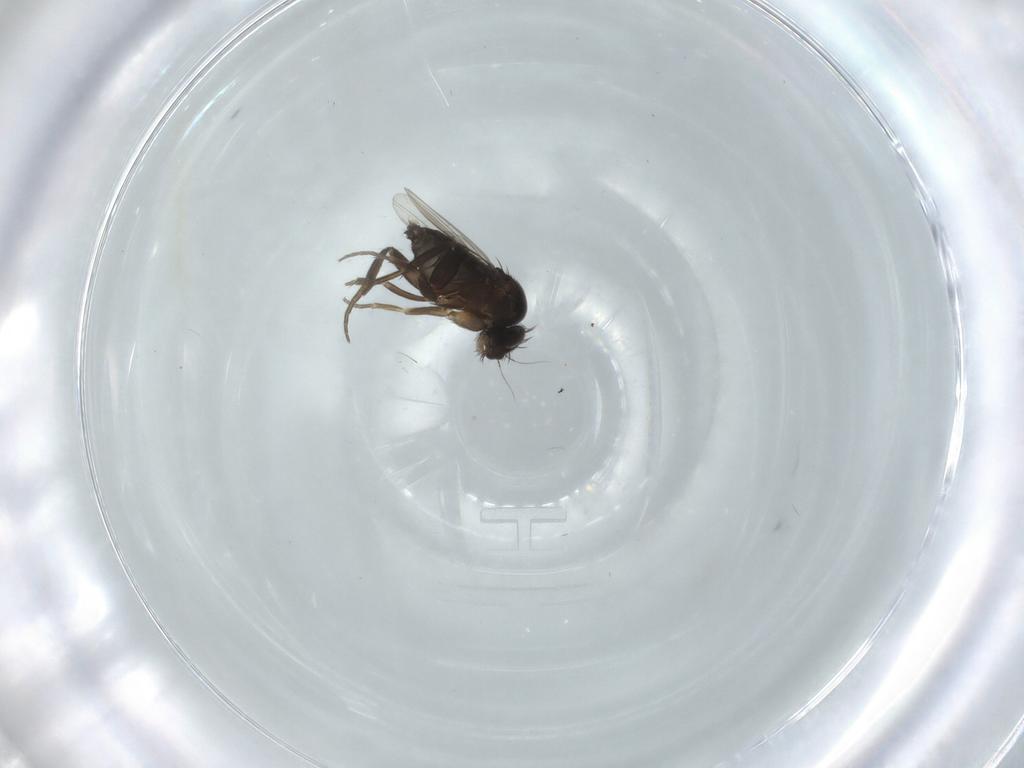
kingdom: Animalia
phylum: Arthropoda
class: Insecta
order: Diptera
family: Phoridae
